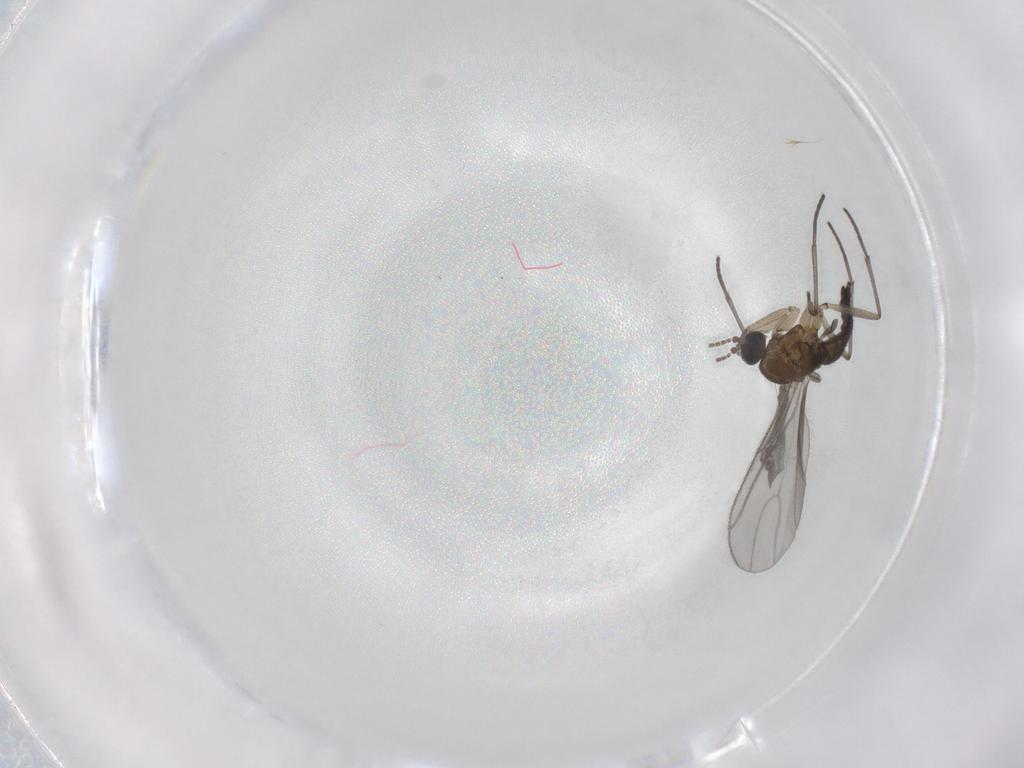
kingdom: Animalia
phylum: Arthropoda
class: Insecta
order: Diptera
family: Sciaridae
